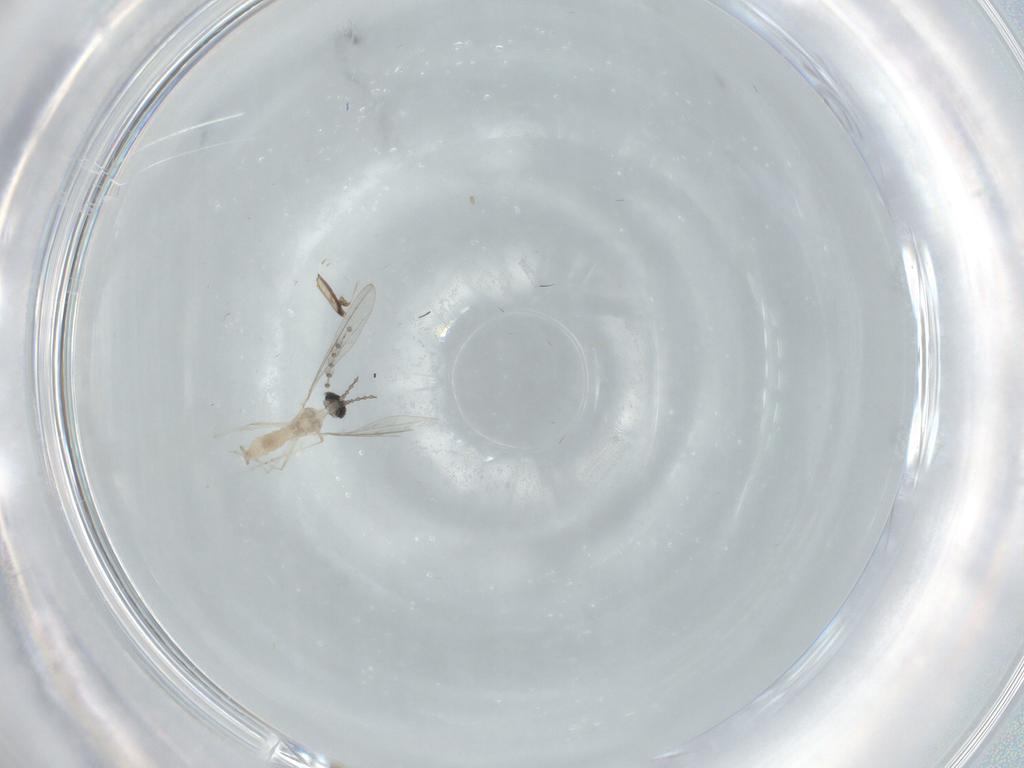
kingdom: Animalia
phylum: Arthropoda
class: Insecta
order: Diptera
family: Cecidomyiidae
